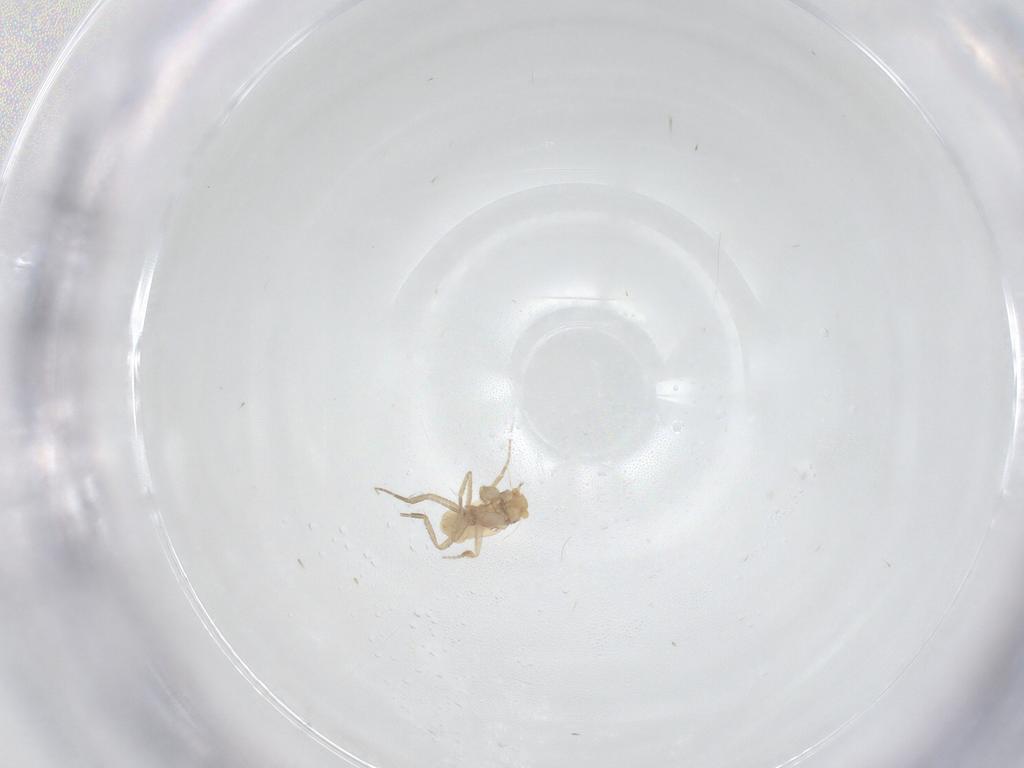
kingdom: Animalia
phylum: Arthropoda
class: Insecta
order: Diptera
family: Phoridae
